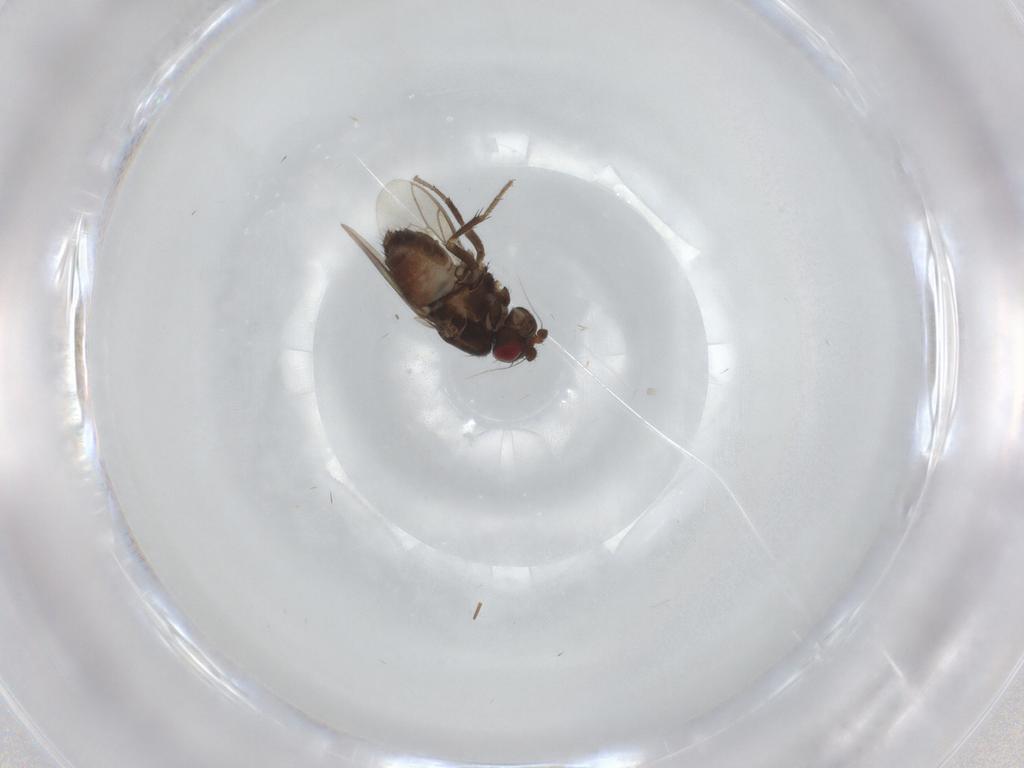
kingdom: Animalia
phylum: Arthropoda
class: Insecta
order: Diptera
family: Sphaeroceridae
